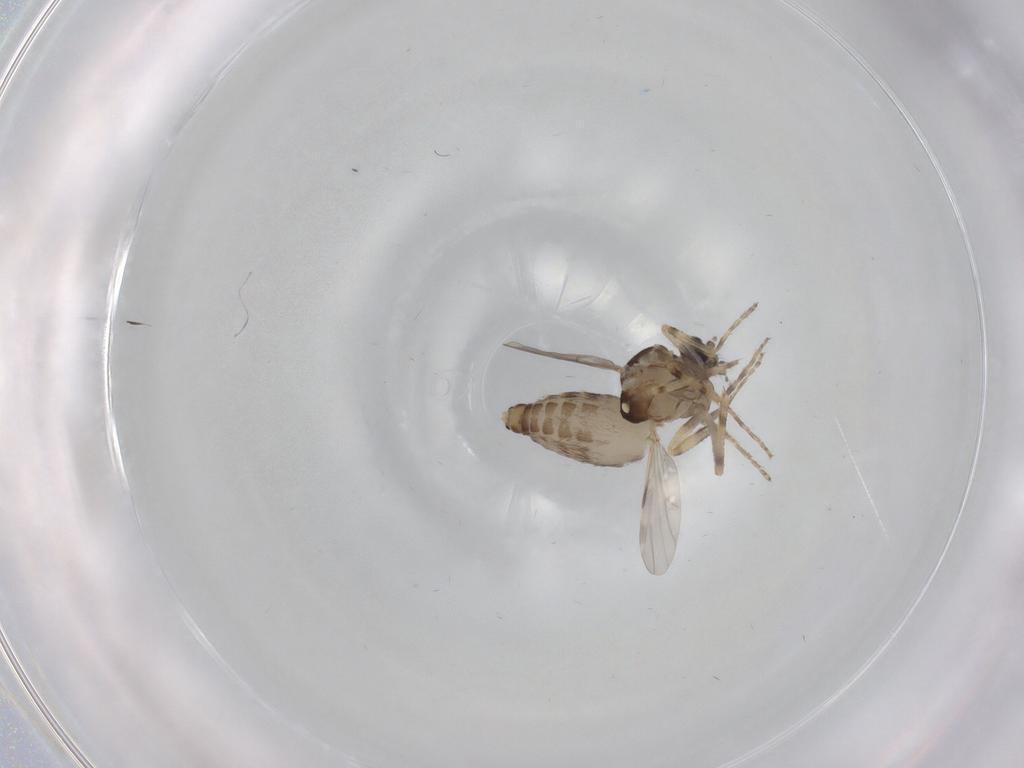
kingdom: Animalia
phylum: Arthropoda
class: Insecta
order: Diptera
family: Ceratopogonidae
